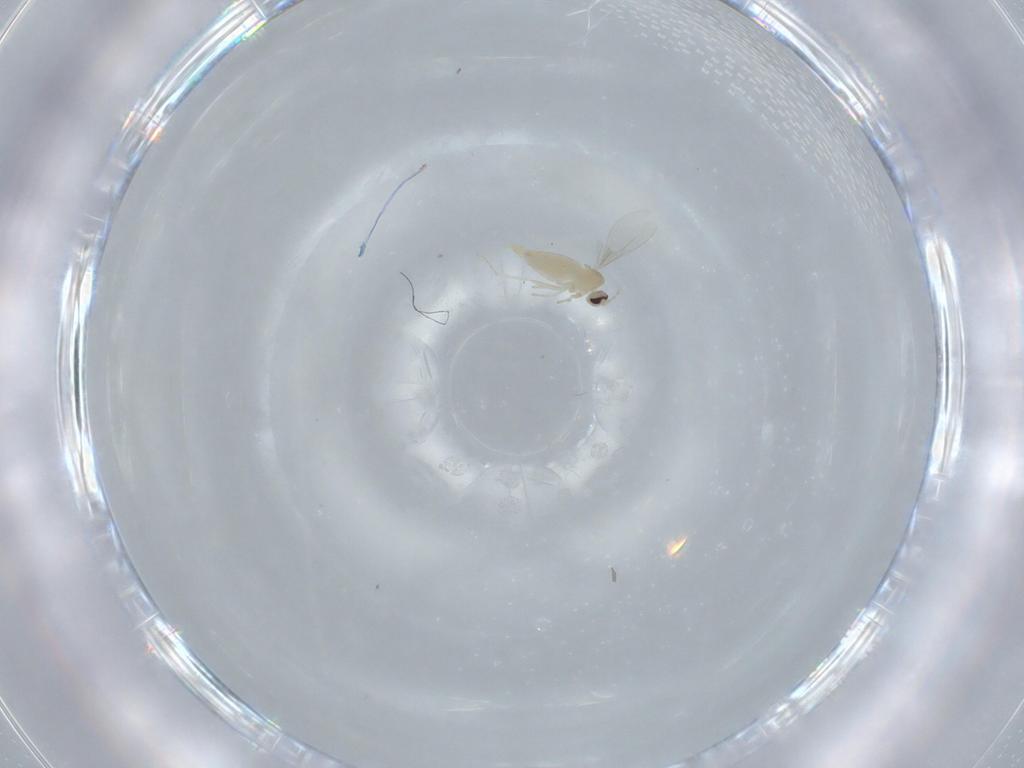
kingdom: Animalia
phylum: Arthropoda
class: Insecta
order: Diptera
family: Cecidomyiidae
